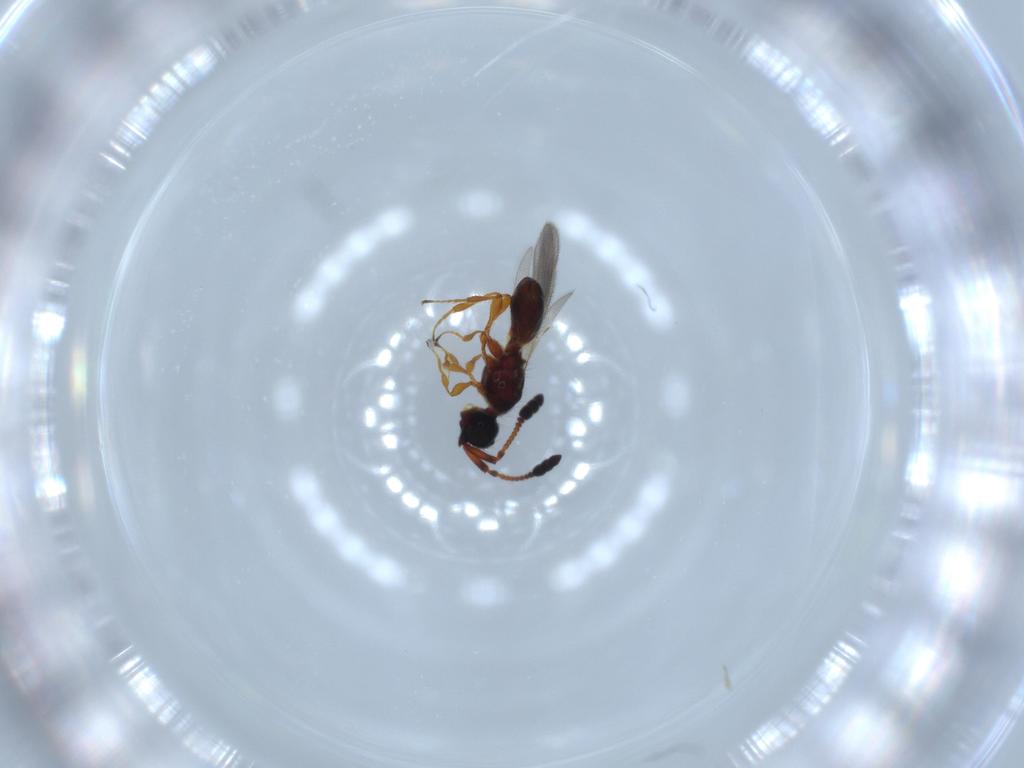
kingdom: Animalia
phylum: Arthropoda
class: Insecta
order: Hymenoptera
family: Diapriidae
